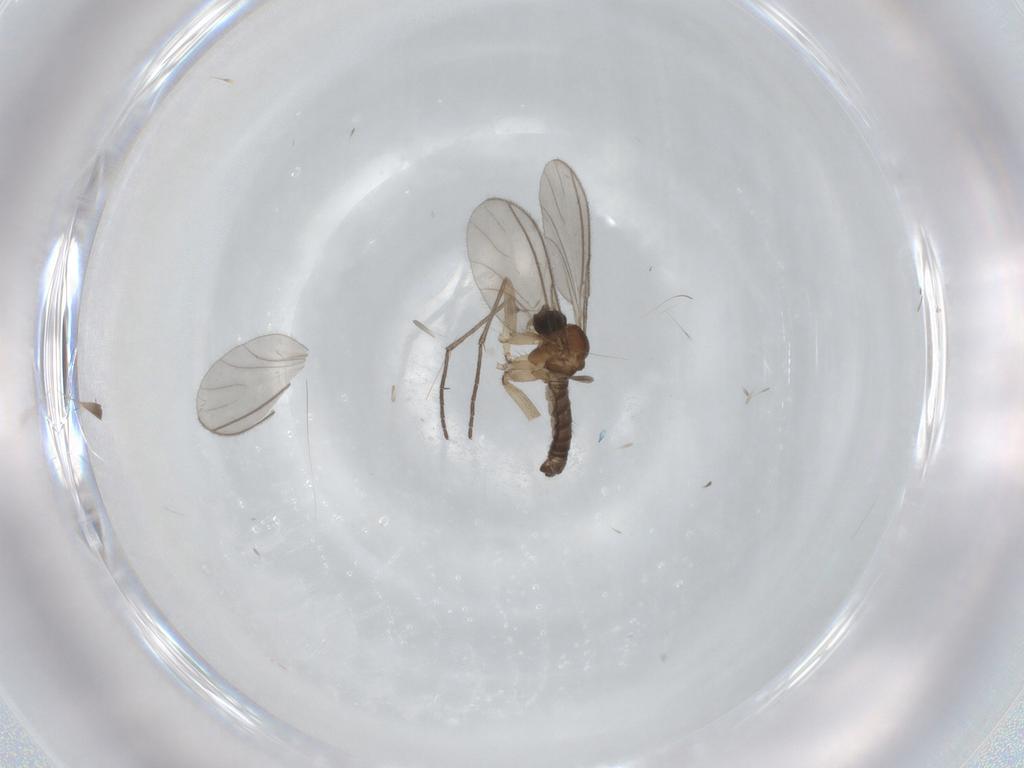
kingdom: Animalia
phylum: Arthropoda
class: Insecta
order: Diptera
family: Sciaridae
